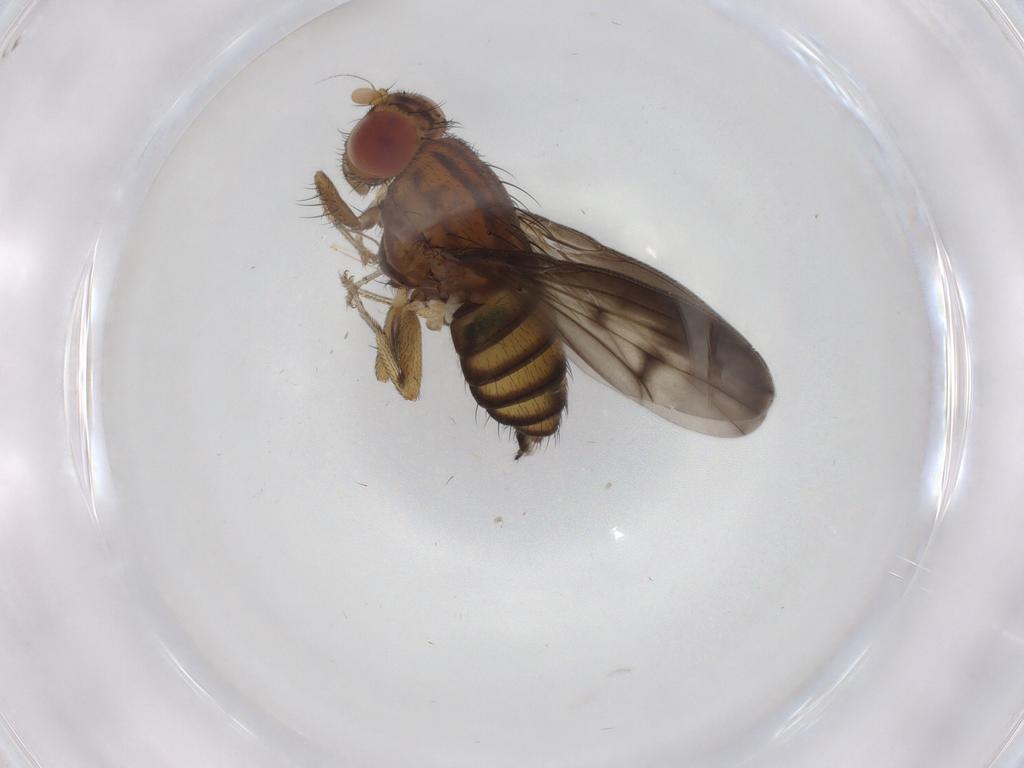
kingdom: Animalia
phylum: Arthropoda
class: Insecta
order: Diptera
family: Lauxaniidae
